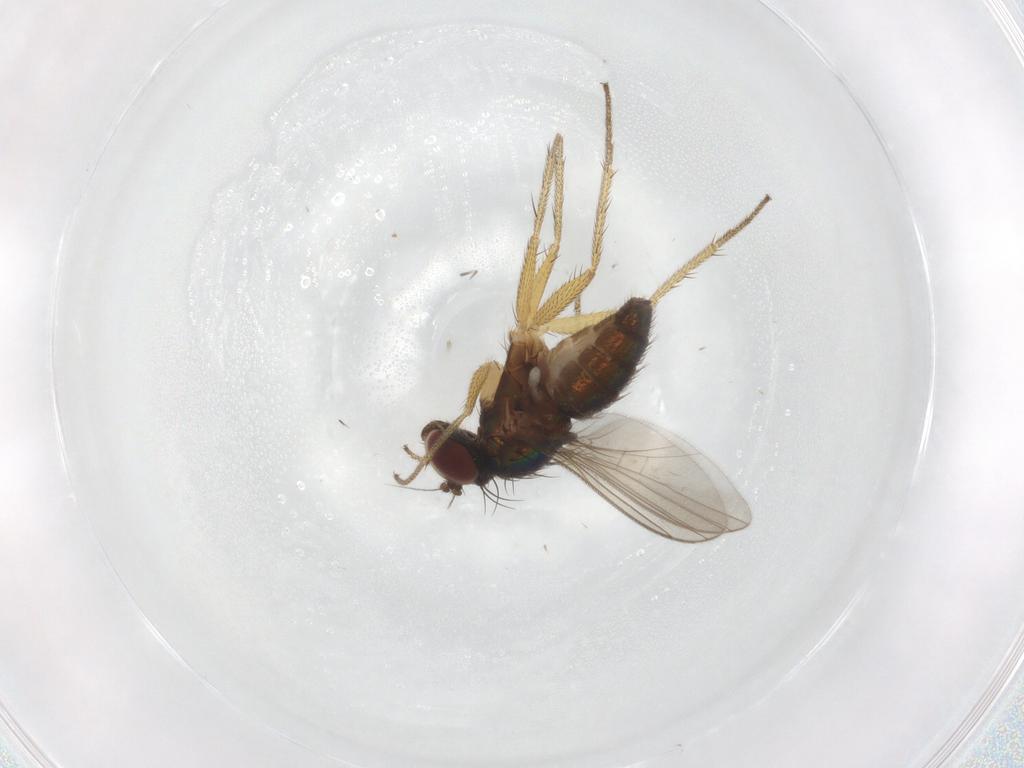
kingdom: Animalia
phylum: Arthropoda
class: Insecta
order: Diptera
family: Chironomidae
